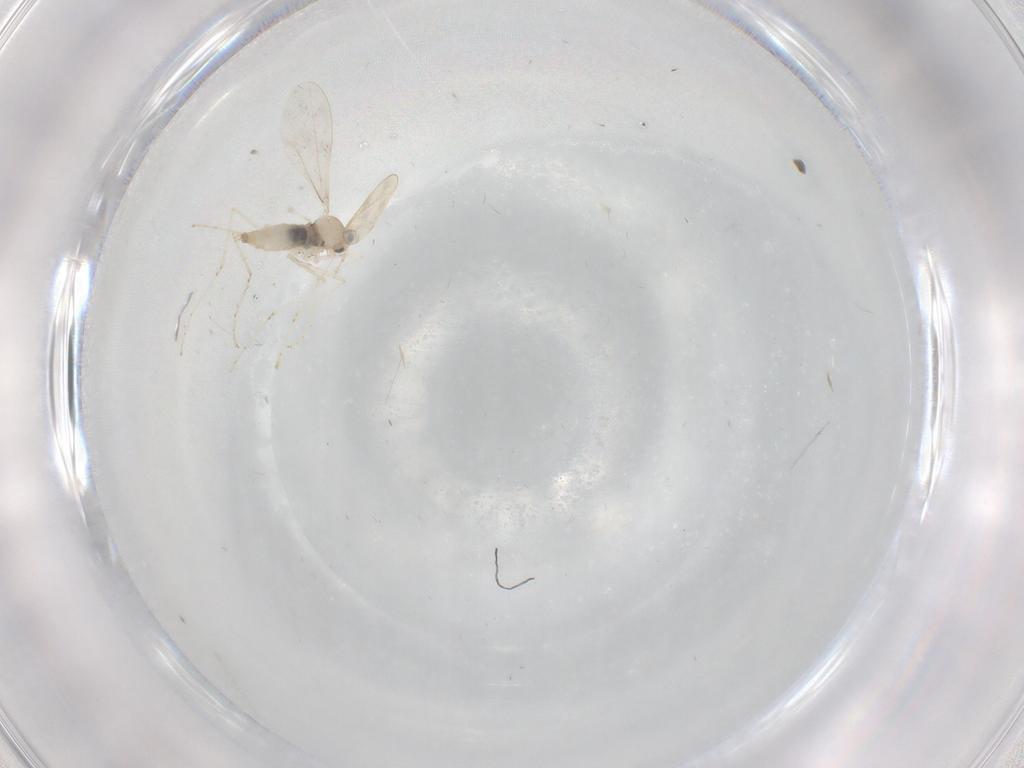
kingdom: Animalia
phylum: Arthropoda
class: Insecta
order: Diptera
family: Cecidomyiidae
